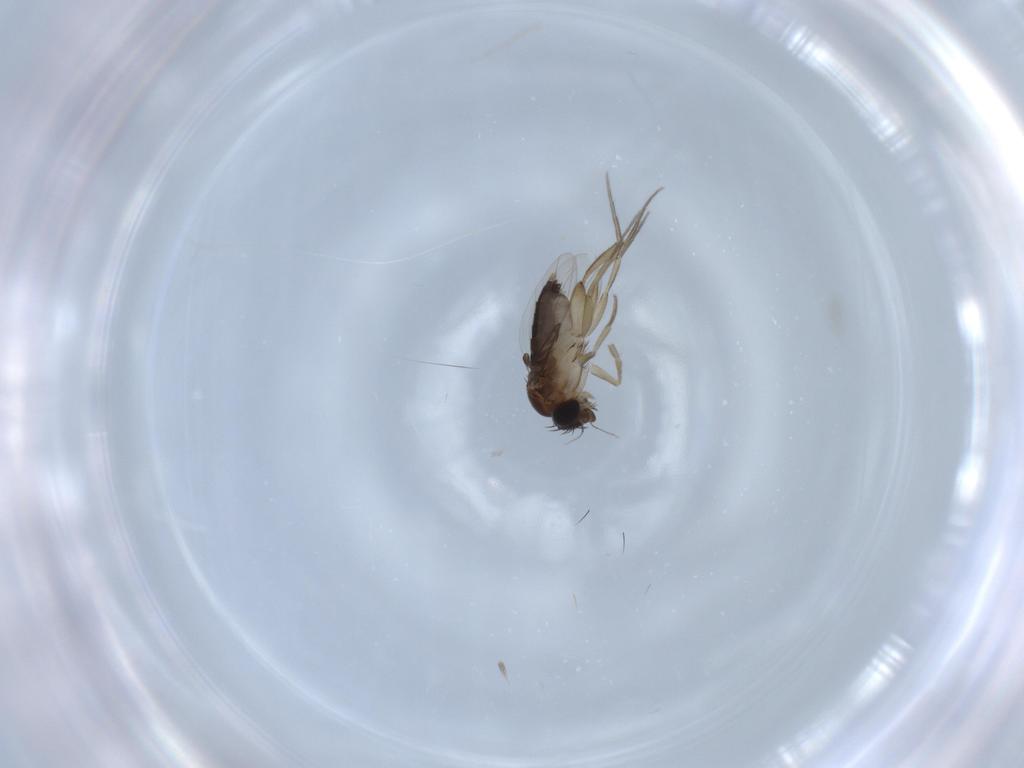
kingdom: Animalia
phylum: Arthropoda
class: Insecta
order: Diptera
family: Phoridae
